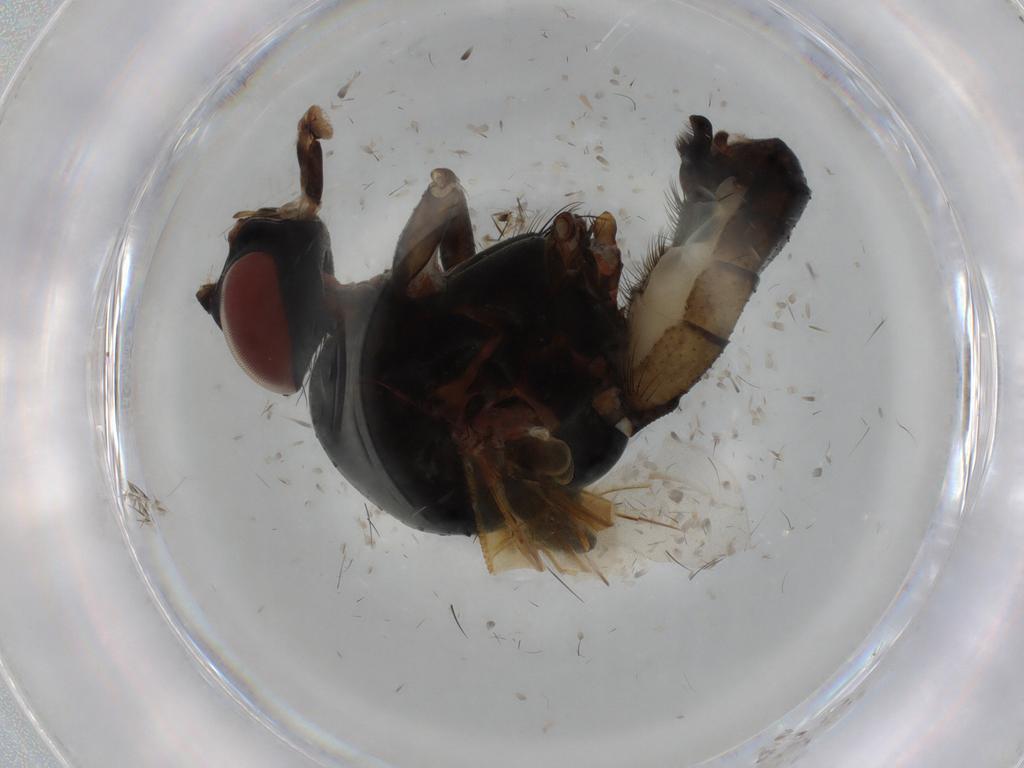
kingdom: Animalia
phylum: Arthropoda
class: Insecta
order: Diptera
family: Anthomyiidae
